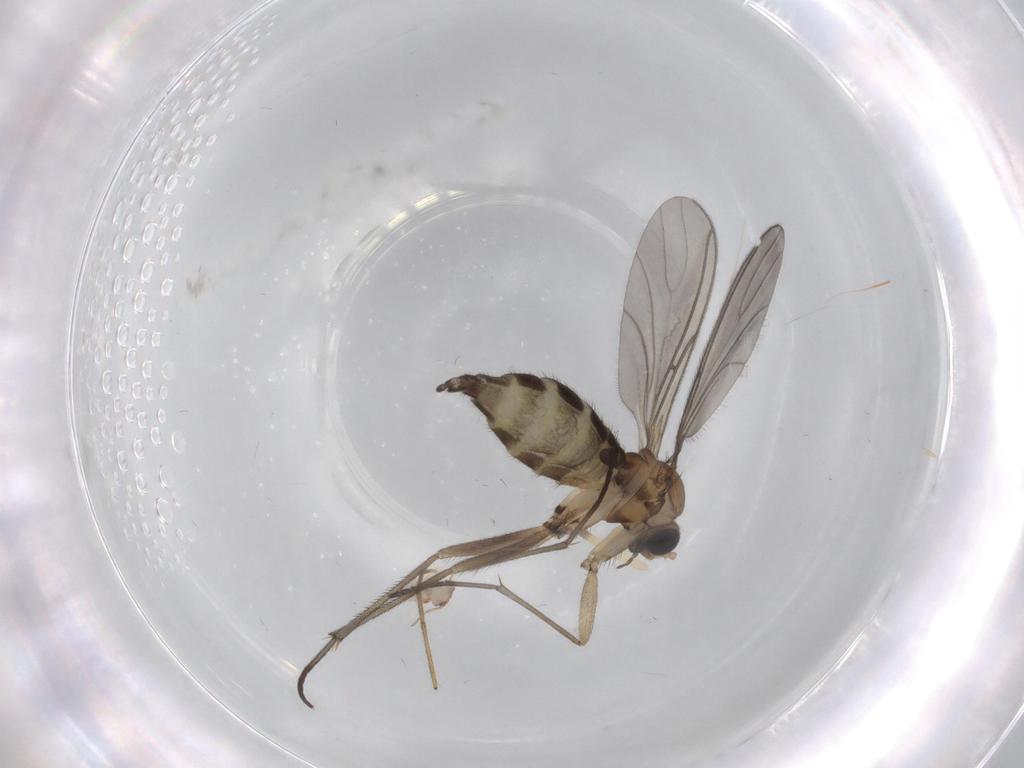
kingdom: Animalia
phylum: Arthropoda
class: Insecta
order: Diptera
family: Sciaridae
